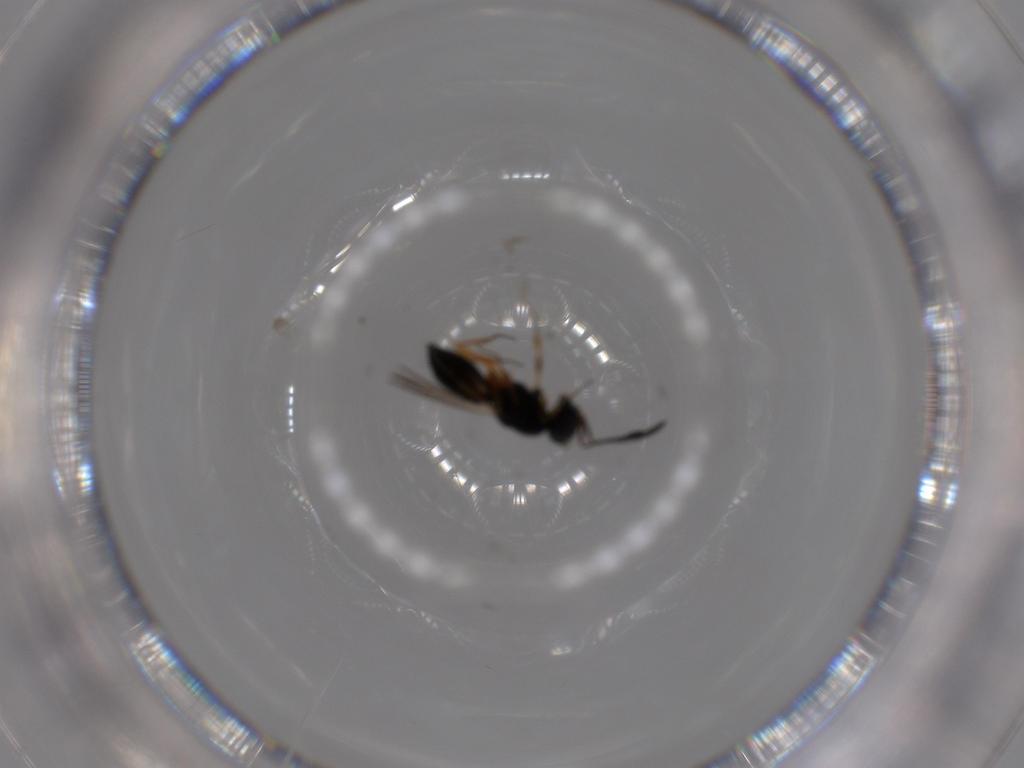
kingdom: Animalia
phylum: Arthropoda
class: Insecta
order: Hymenoptera
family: Scelionidae
